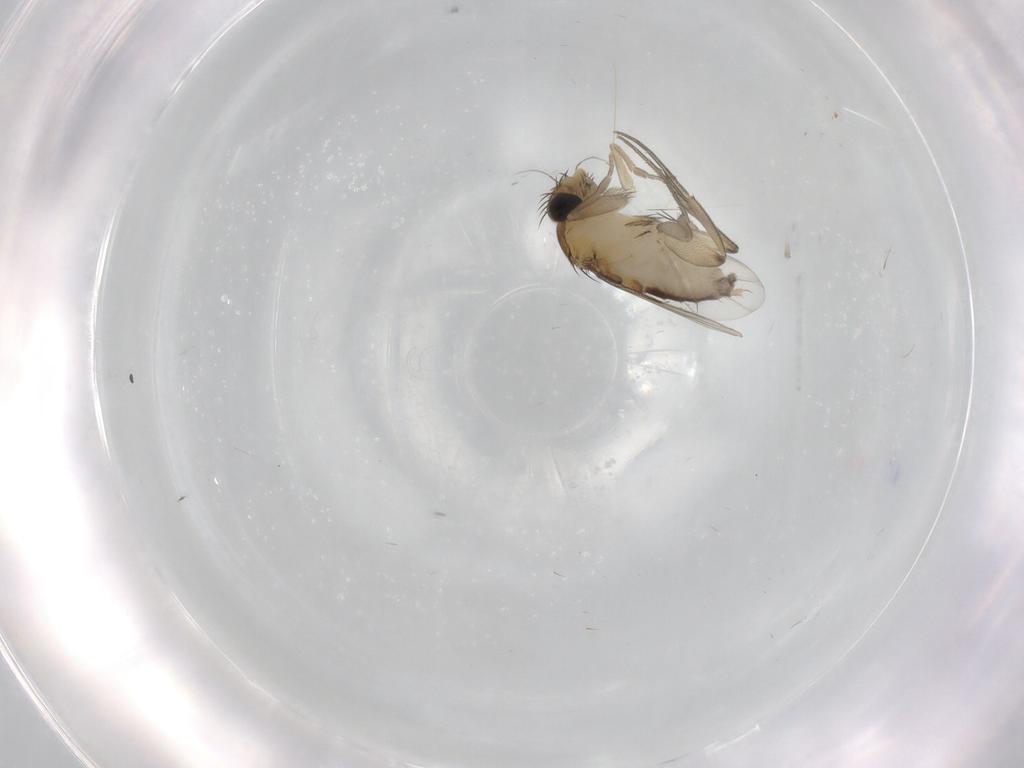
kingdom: Animalia
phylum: Arthropoda
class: Insecta
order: Diptera
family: Phoridae
